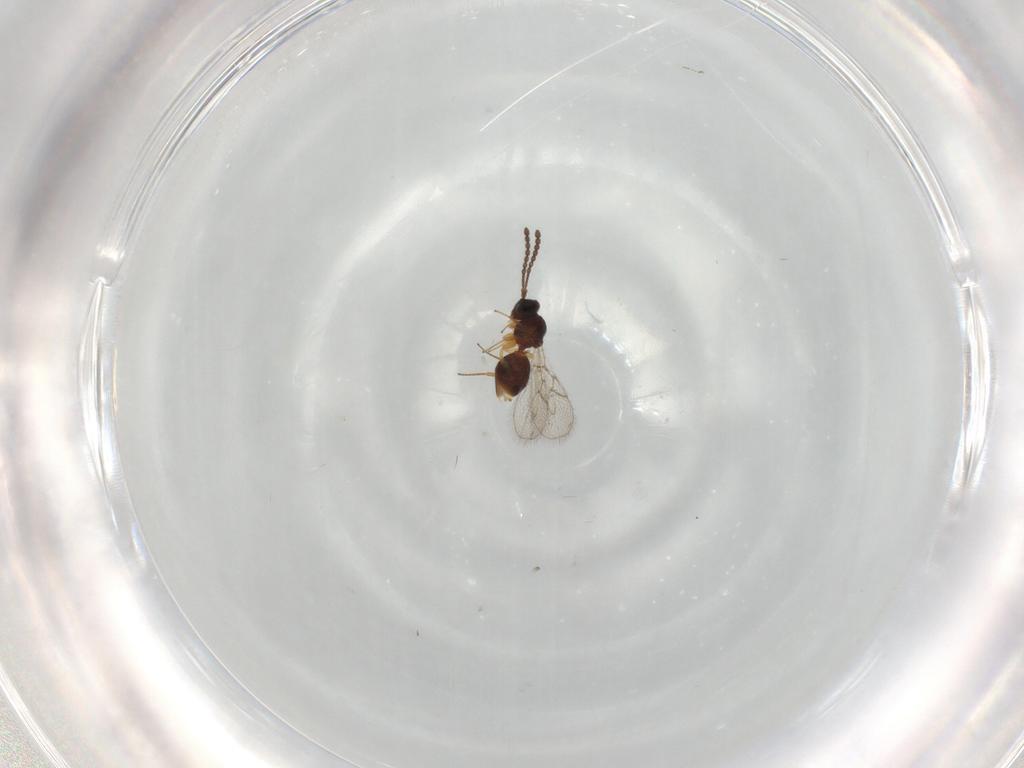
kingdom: Animalia
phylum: Arthropoda
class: Insecta
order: Hymenoptera
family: Figitidae
